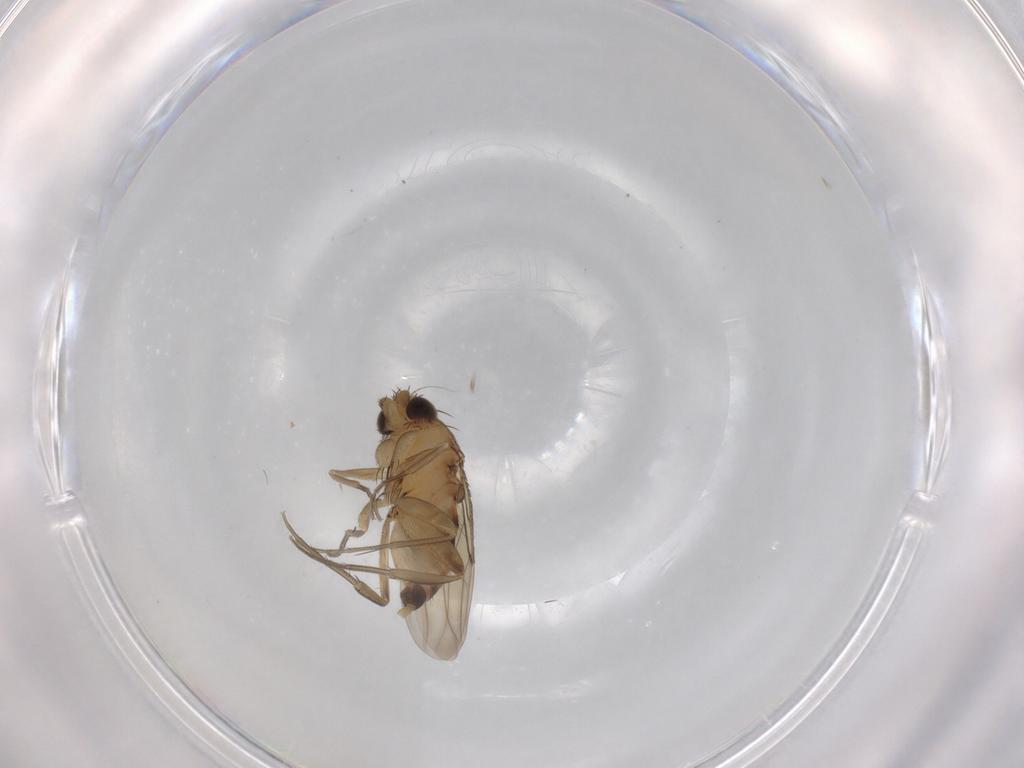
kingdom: Animalia
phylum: Arthropoda
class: Insecta
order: Diptera
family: Phoridae
